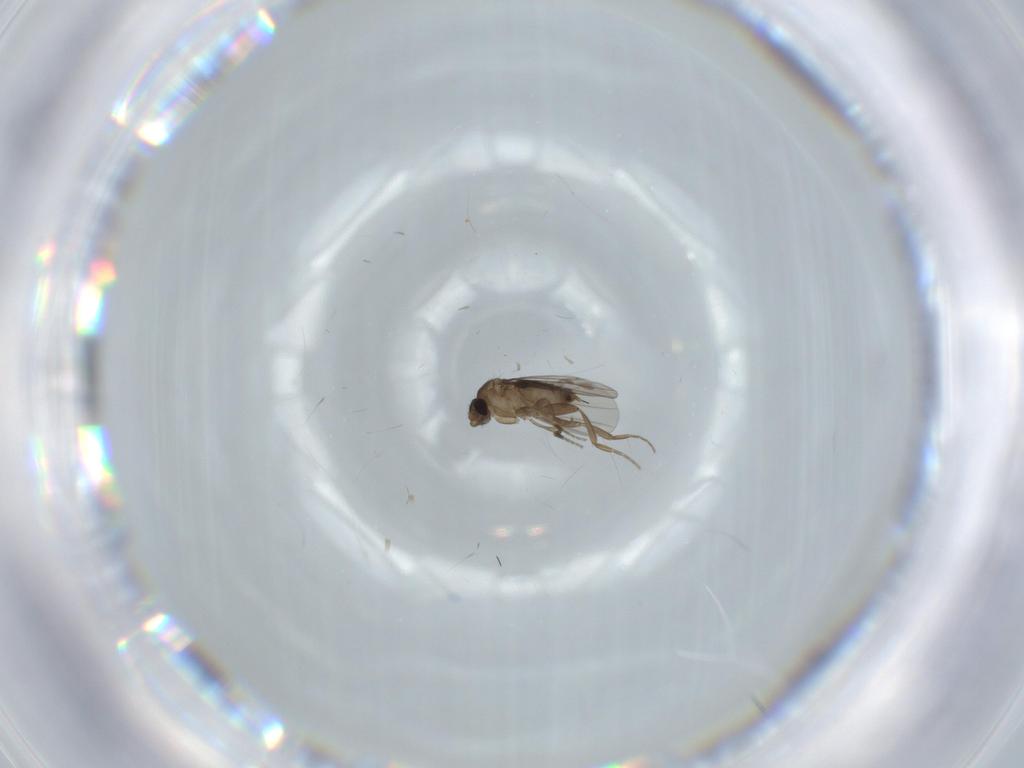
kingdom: Animalia
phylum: Arthropoda
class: Insecta
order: Diptera
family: Phoridae
